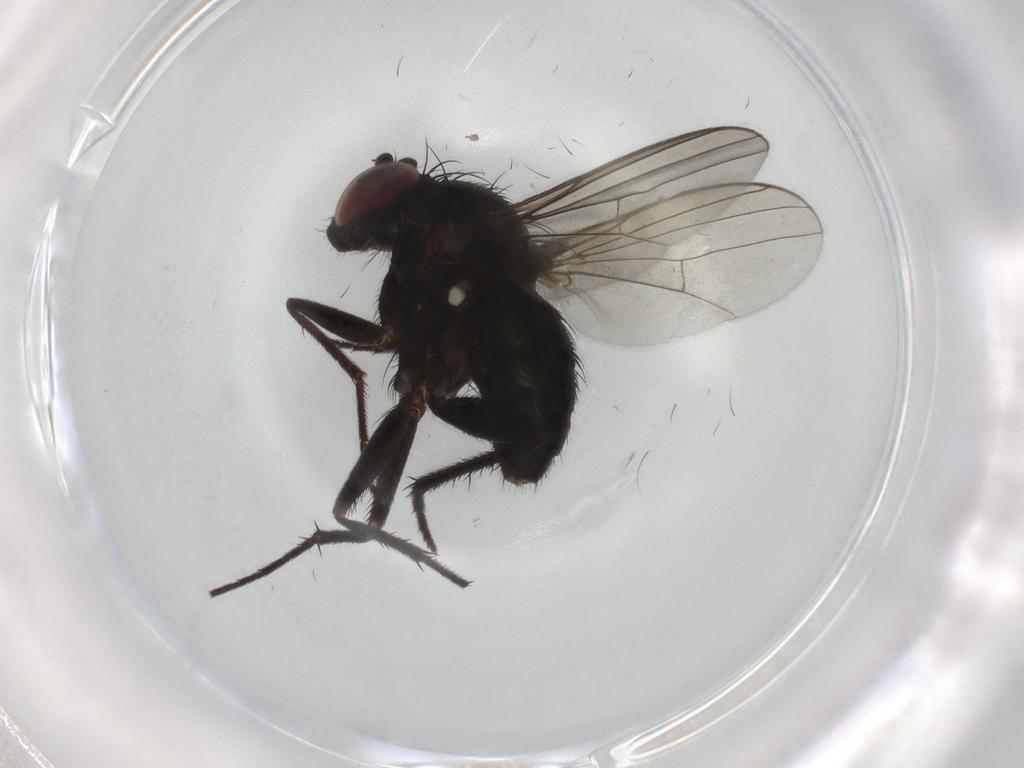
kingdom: Animalia
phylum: Arthropoda
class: Insecta
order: Diptera
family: Dolichopodidae
